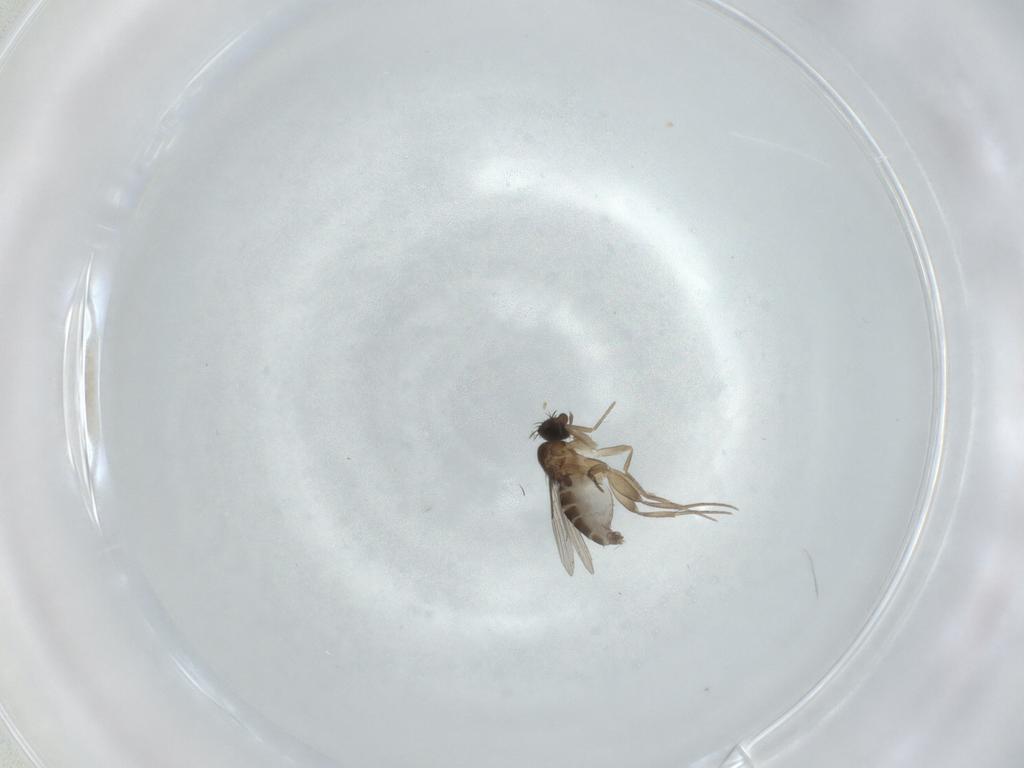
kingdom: Animalia
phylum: Arthropoda
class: Insecta
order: Diptera
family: Phoridae
